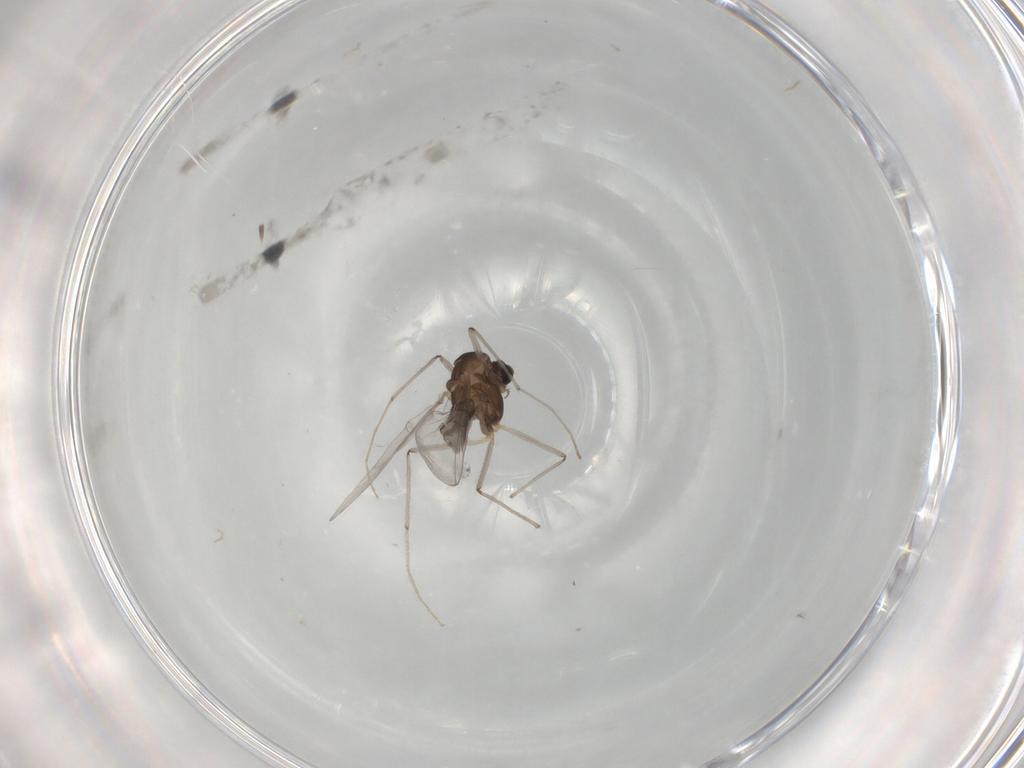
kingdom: Animalia
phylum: Arthropoda
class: Insecta
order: Diptera
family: Chironomidae
